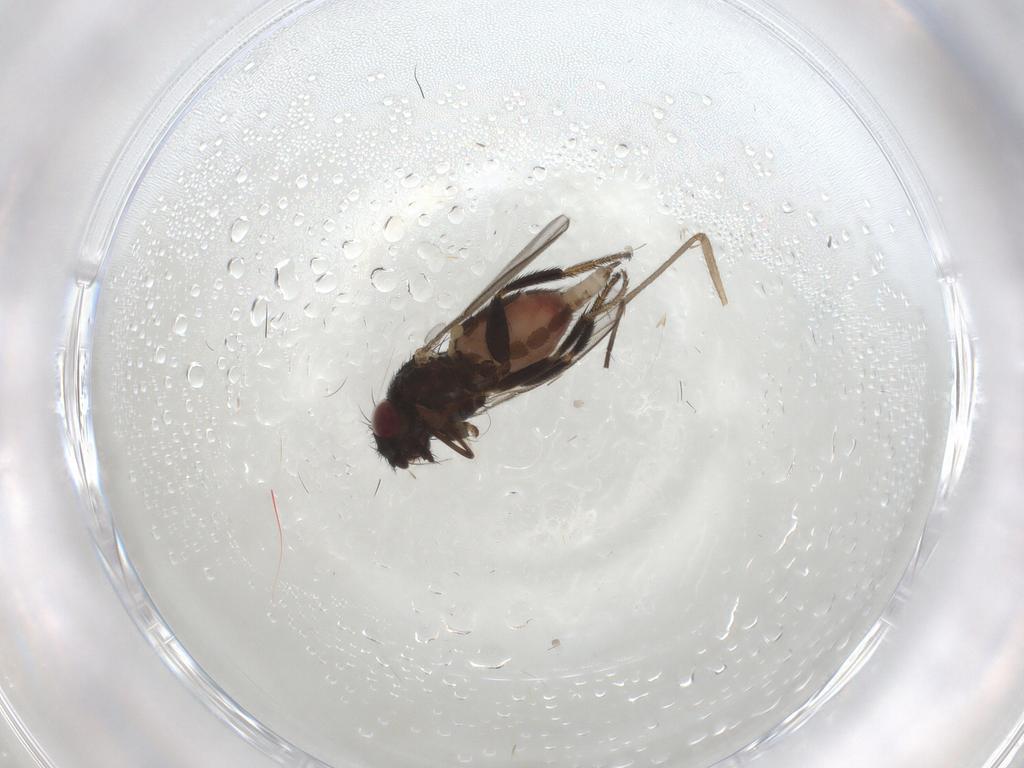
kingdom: Animalia
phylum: Arthropoda
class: Insecta
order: Diptera
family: Milichiidae
